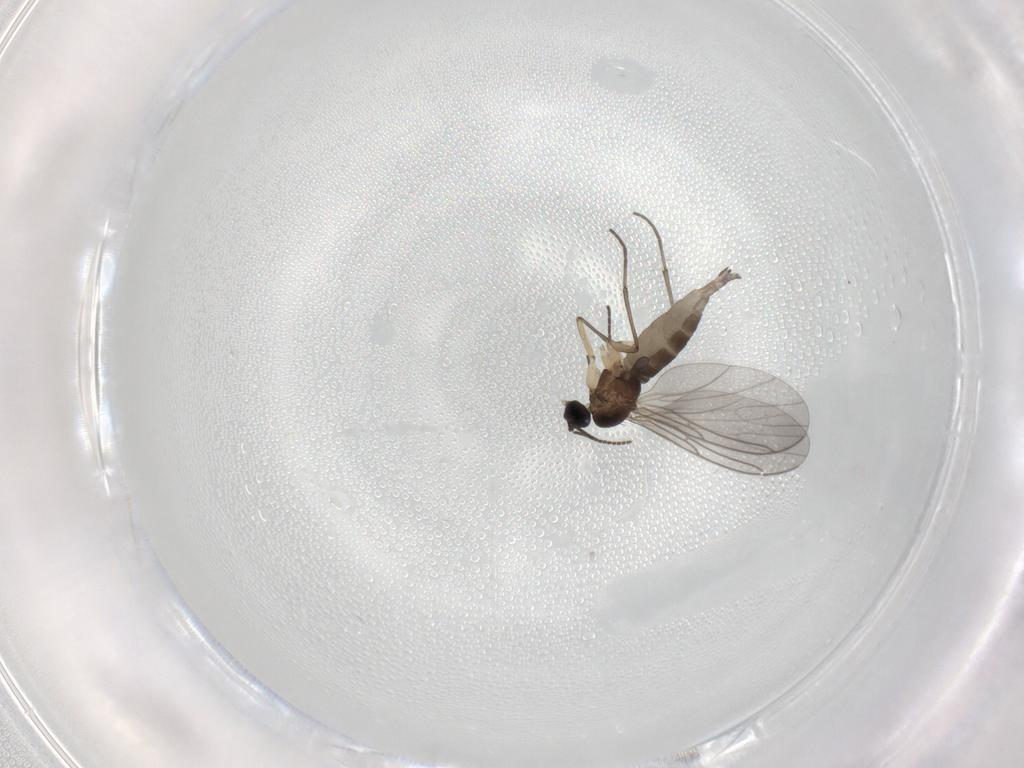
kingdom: Animalia
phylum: Arthropoda
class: Insecta
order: Diptera
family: Sciaridae
